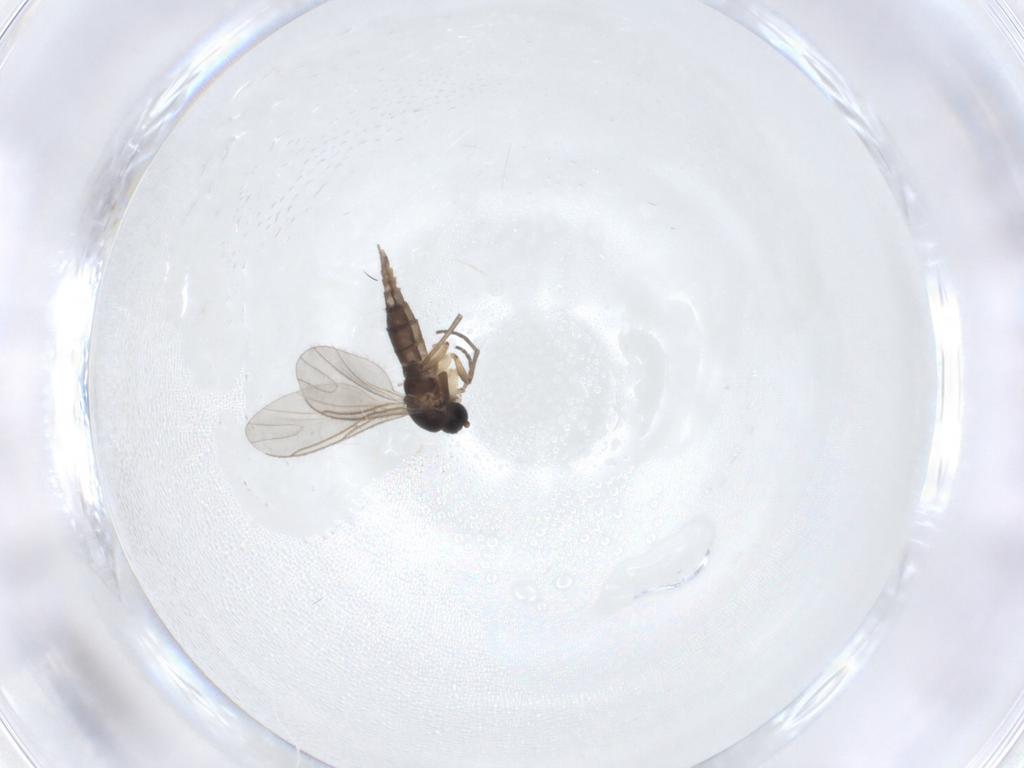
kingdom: Animalia
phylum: Arthropoda
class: Insecta
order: Diptera
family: Sciaridae
